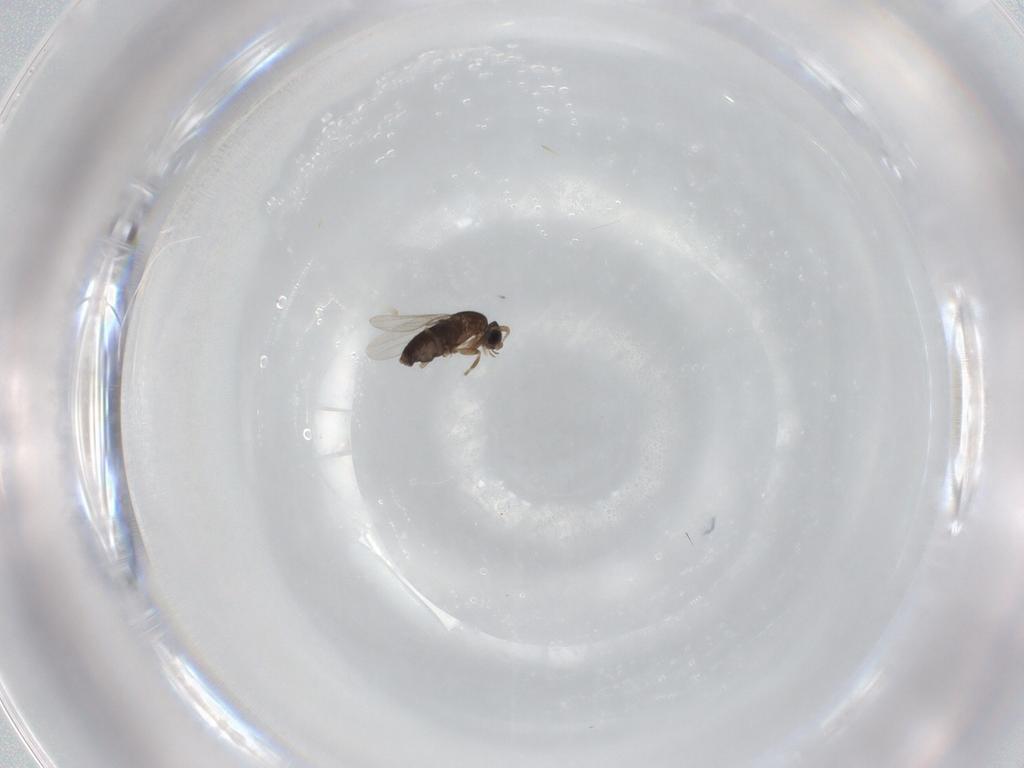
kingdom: Animalia
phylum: Arthropoda
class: Insecta
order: Diptera
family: Phoridae
